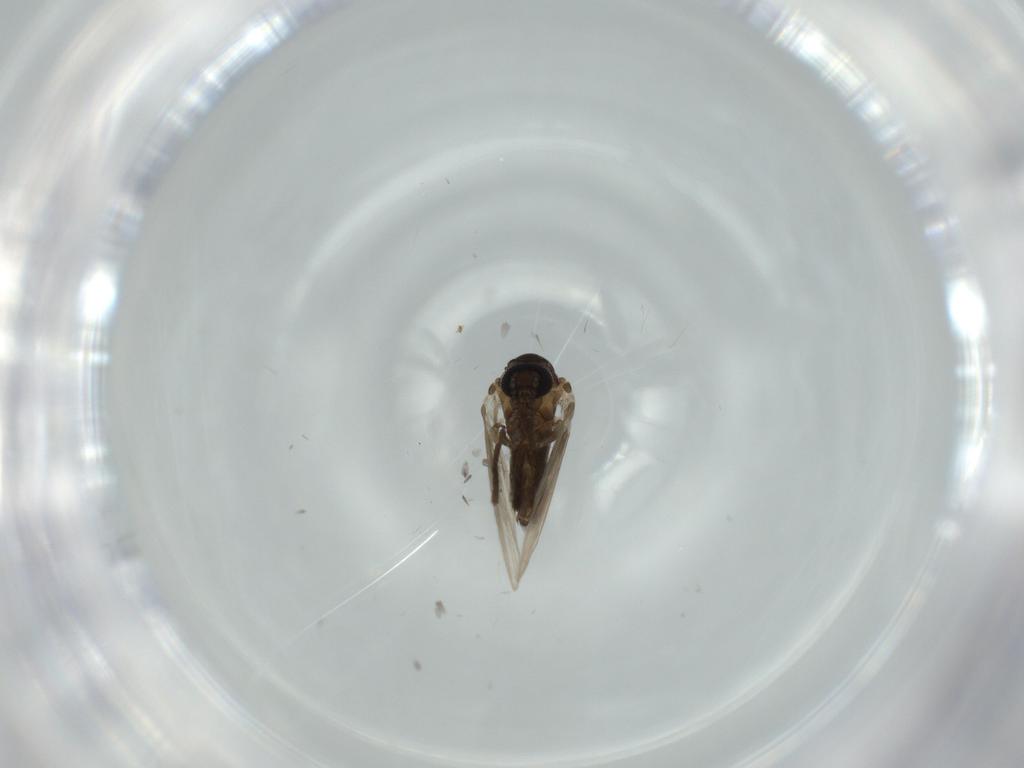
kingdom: Animalia
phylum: Arthropoda
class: Insecta
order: Diptera
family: Psychodidae
